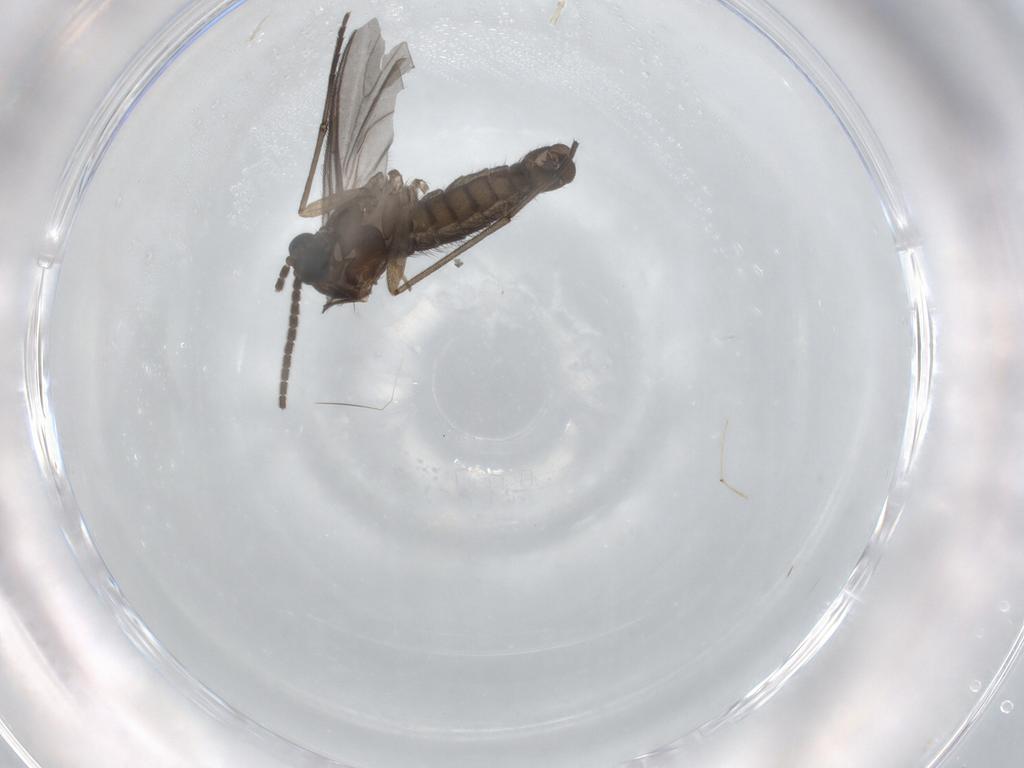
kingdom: Animalia
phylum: Arthropoda
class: Insecta
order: Diptera
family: Sciaridae
